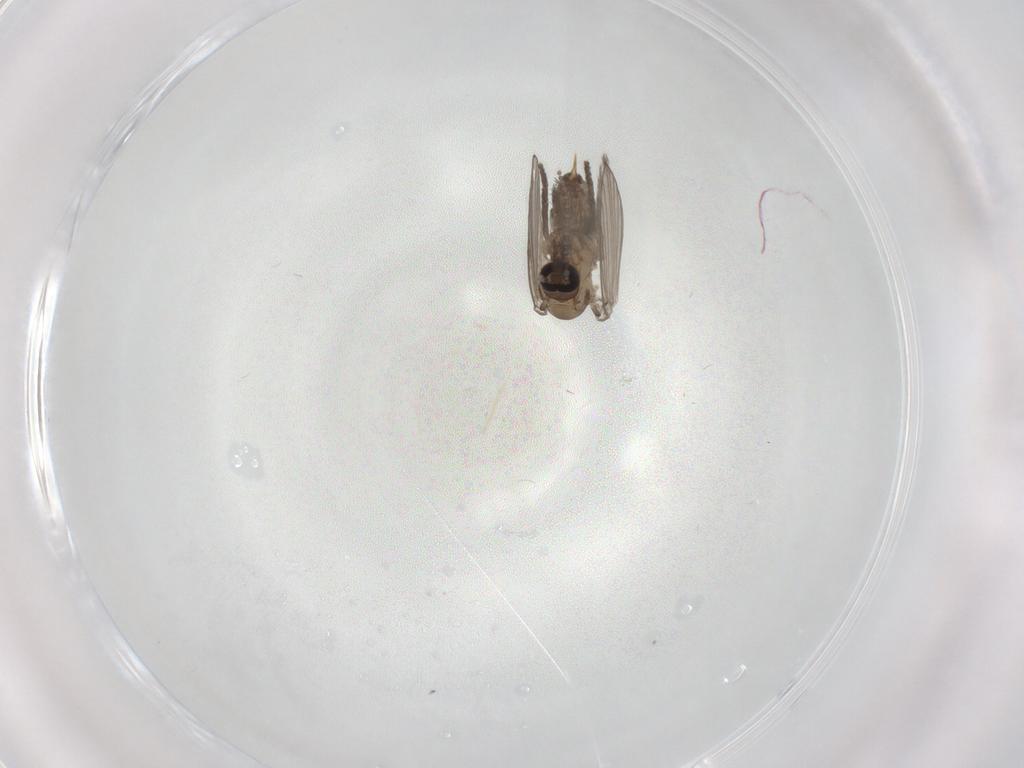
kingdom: Animalia
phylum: Arthropoda
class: Insecta
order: Diptera
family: Psychodidae
